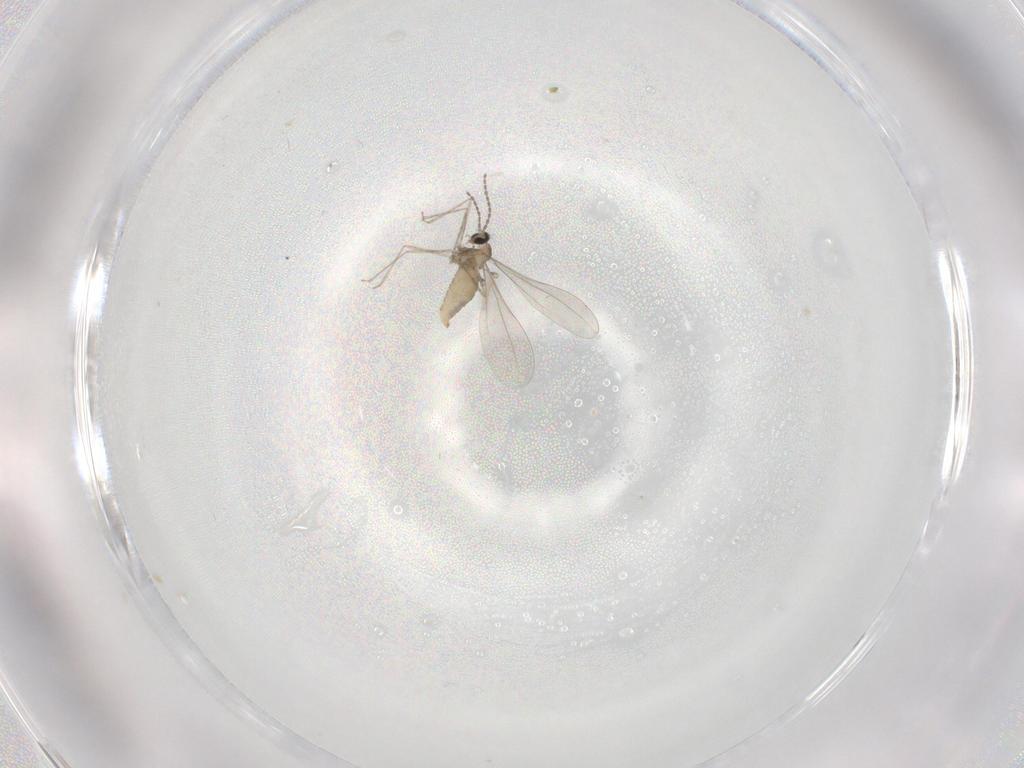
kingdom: Animalia
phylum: Arthropoda
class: Insecta
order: Diptera
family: Cecidomyiidae
